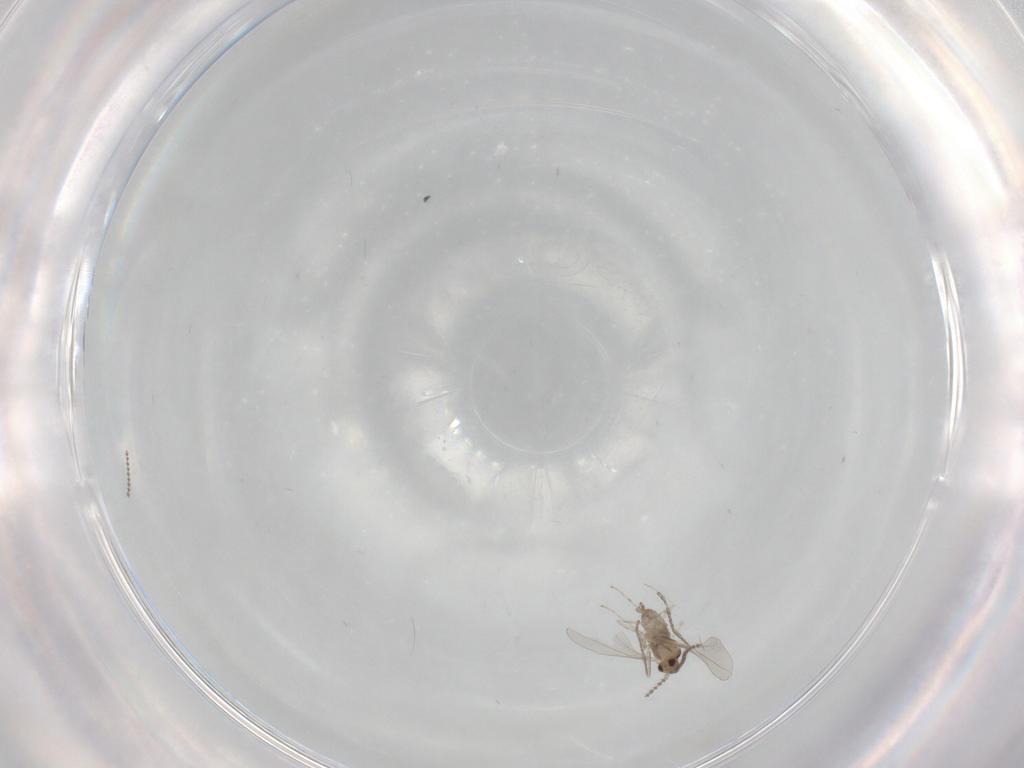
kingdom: Animalia
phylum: Arthropoda
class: Insecta
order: Diptera
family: Cecidomyiidae
